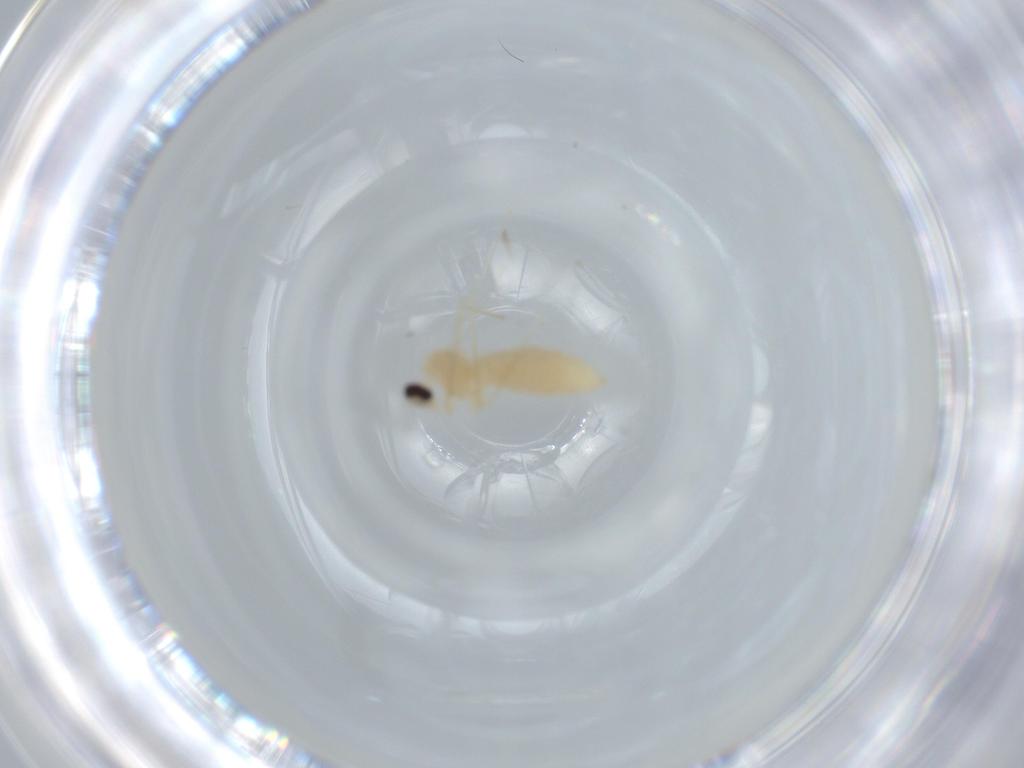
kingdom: Animalia
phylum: Arthropoda
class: Insecta
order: Diptera
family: Cecidomyiidae
